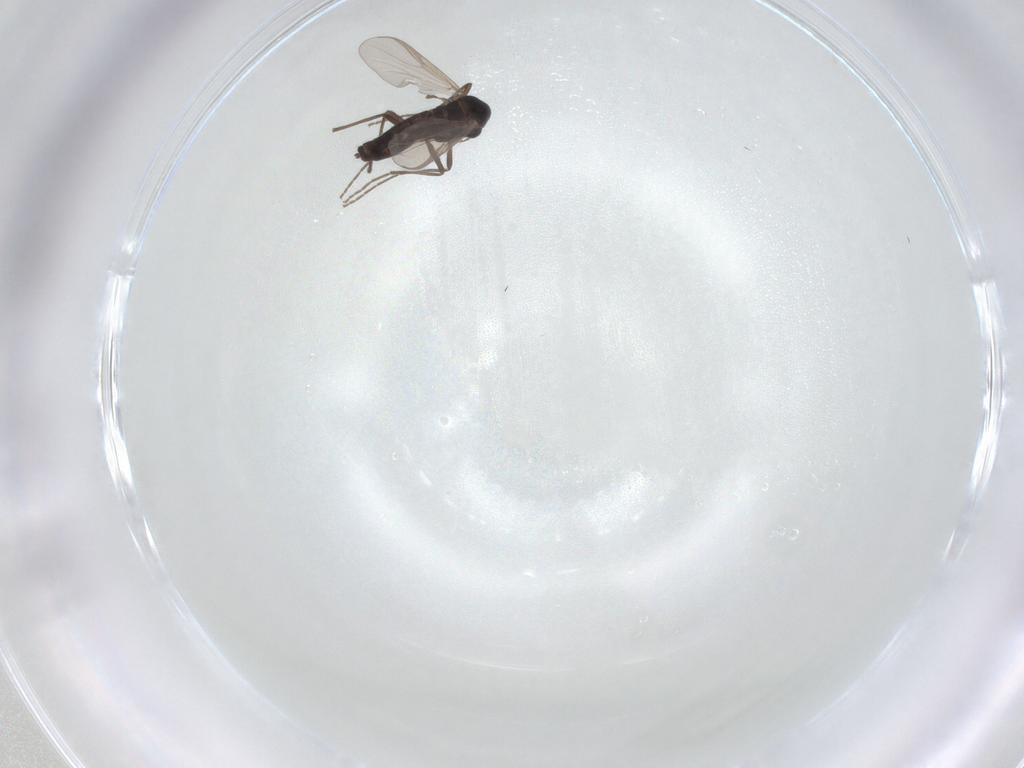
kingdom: Animalia
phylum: Arthropoda
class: Insecta
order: Diptera
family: Chironomidae
